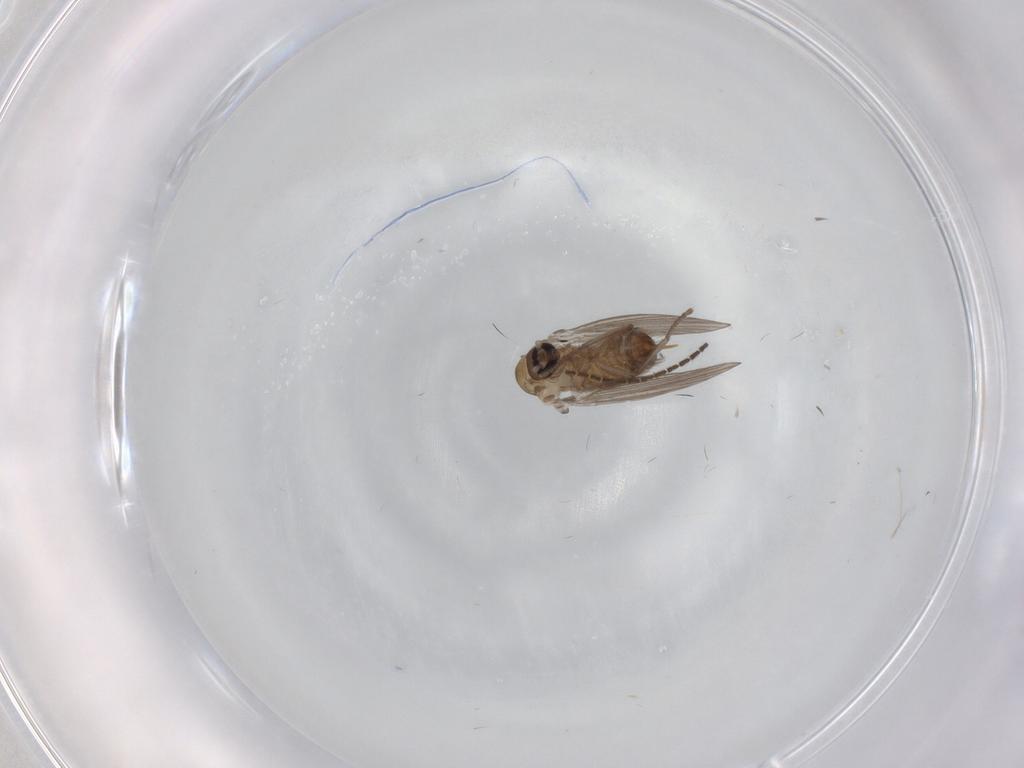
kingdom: Animalia
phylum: Arthropoda
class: Insecta
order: Diptera
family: Psychodidae
